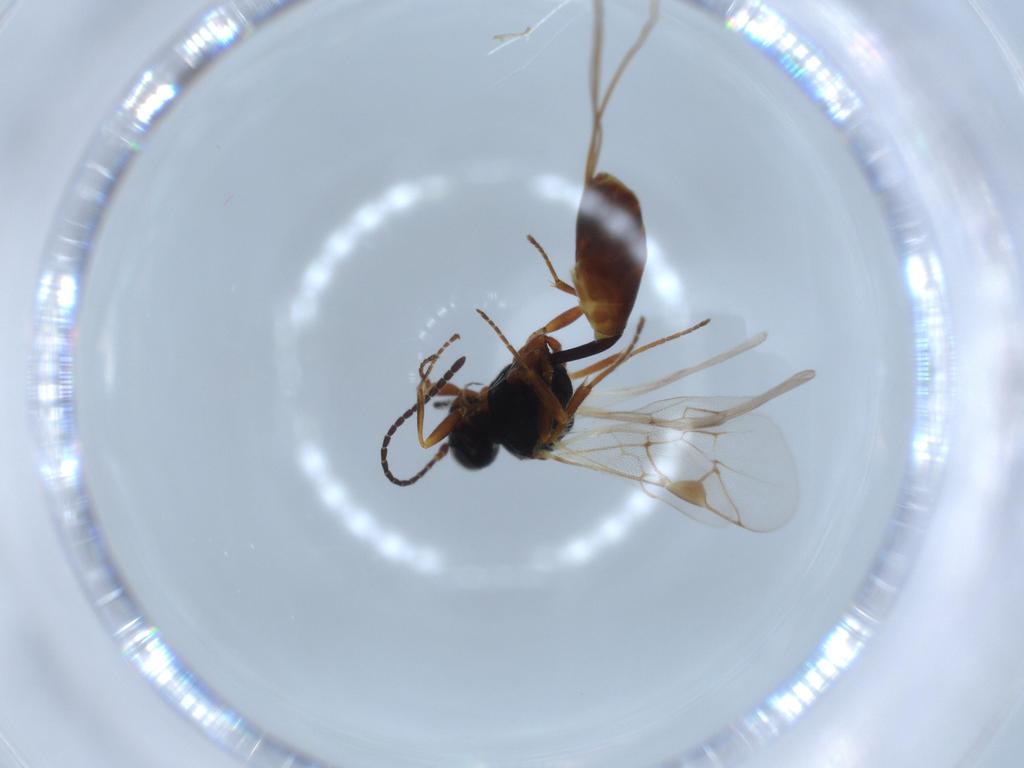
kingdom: Animalia
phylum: Arthropoda
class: Insecta
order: Hymenoptera
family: Ichneumonidae
